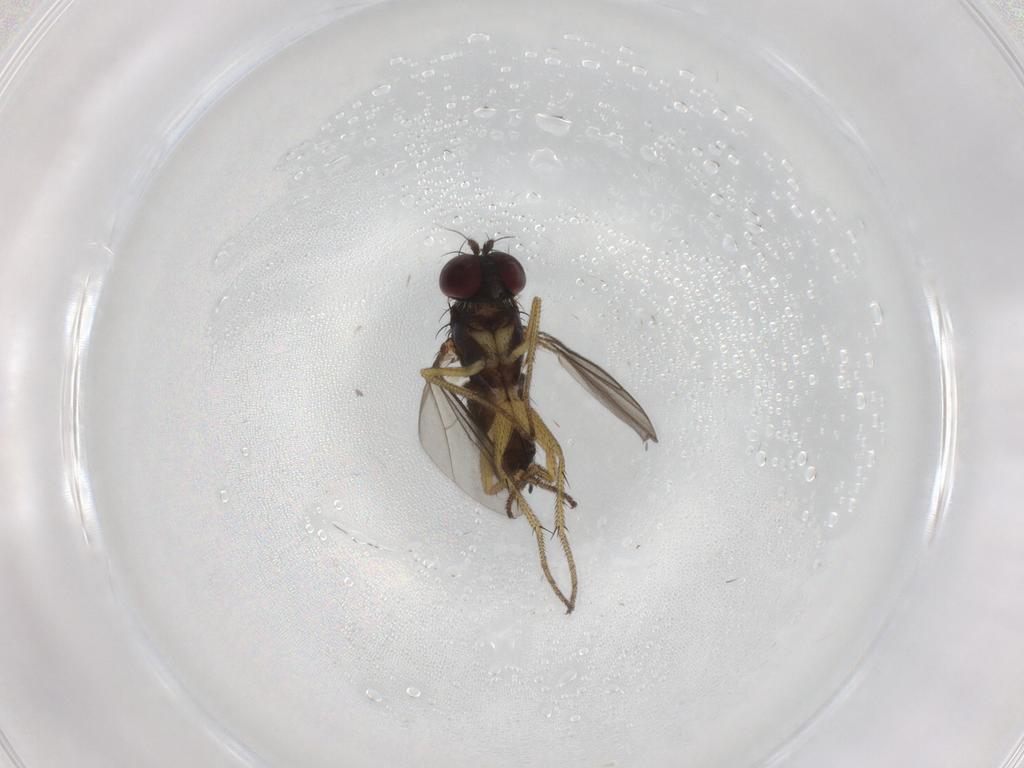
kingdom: Animalia
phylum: Arthropoda
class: Insecta
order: Diptera
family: Dolichopodidae
